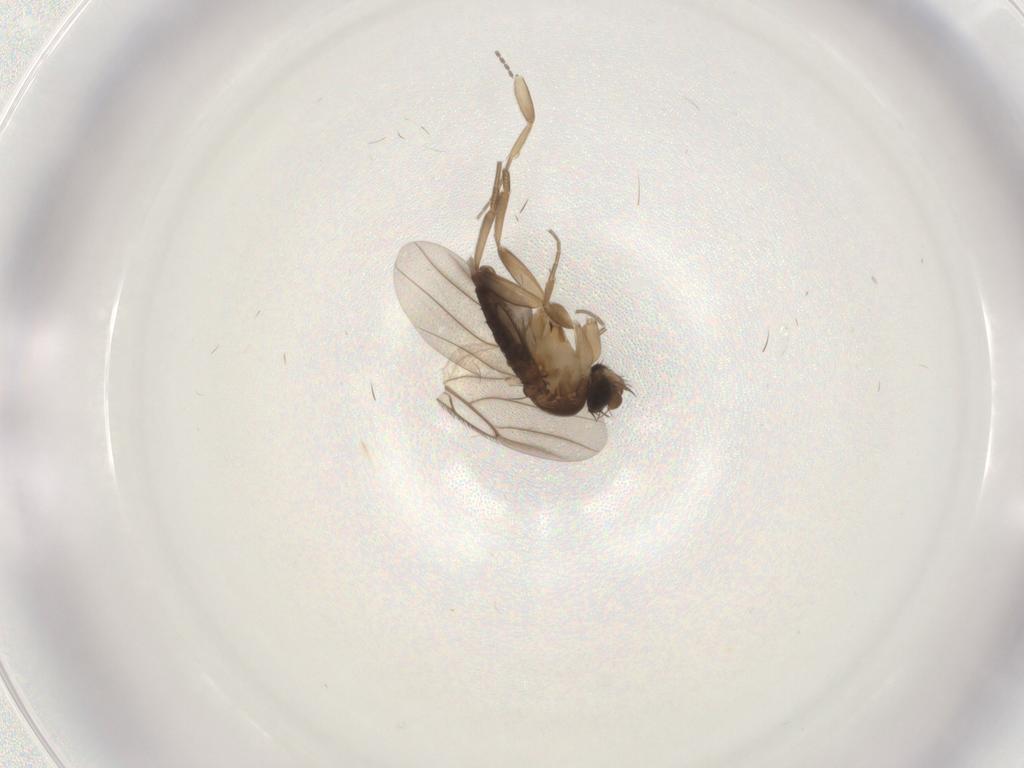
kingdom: Animalia
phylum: Arthropoda
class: Insecta
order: Diptera
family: Phoridae
